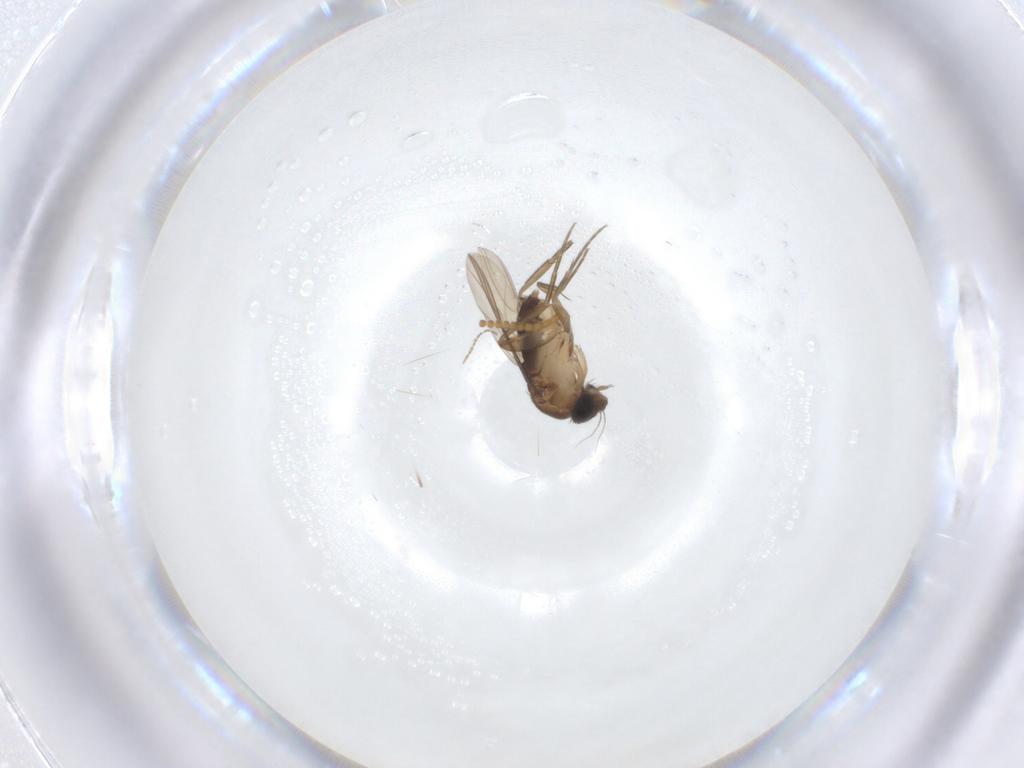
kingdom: Animalia
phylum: Arthropoda
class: Insecta
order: Diptera
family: Phoridae
